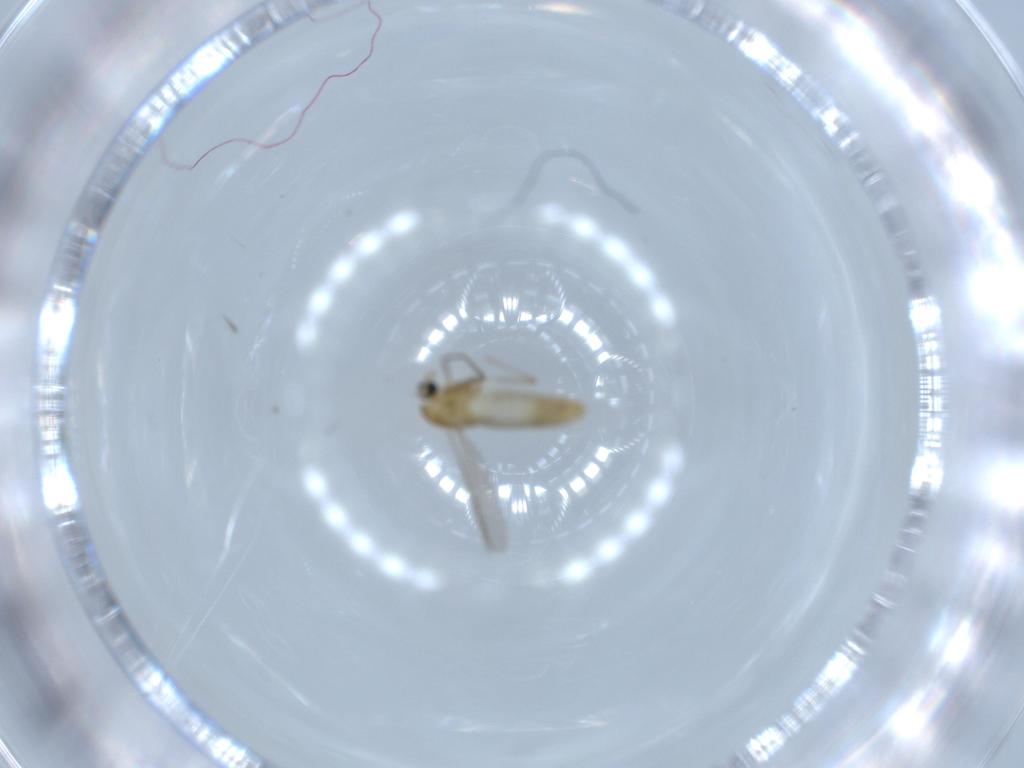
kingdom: Animalia
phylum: Arthropoda
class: Insecta
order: Diptera
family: Chironomidae
